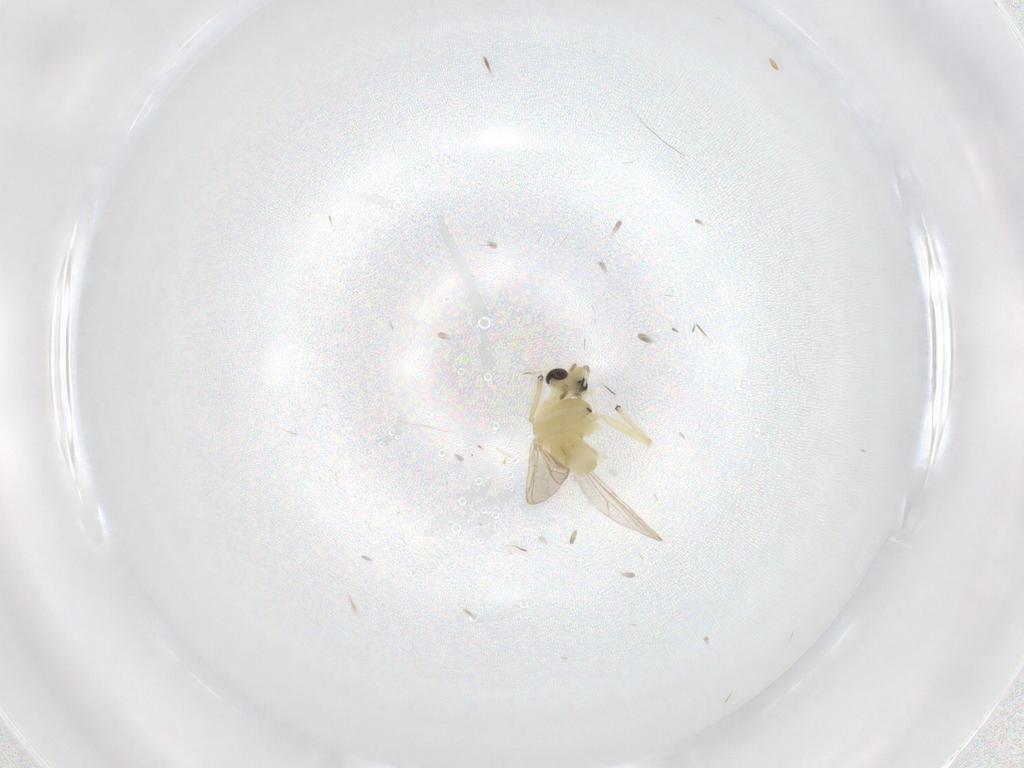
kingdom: Animalia
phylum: Arthropoda
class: Insecta
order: Diptera
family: Chironomidae
